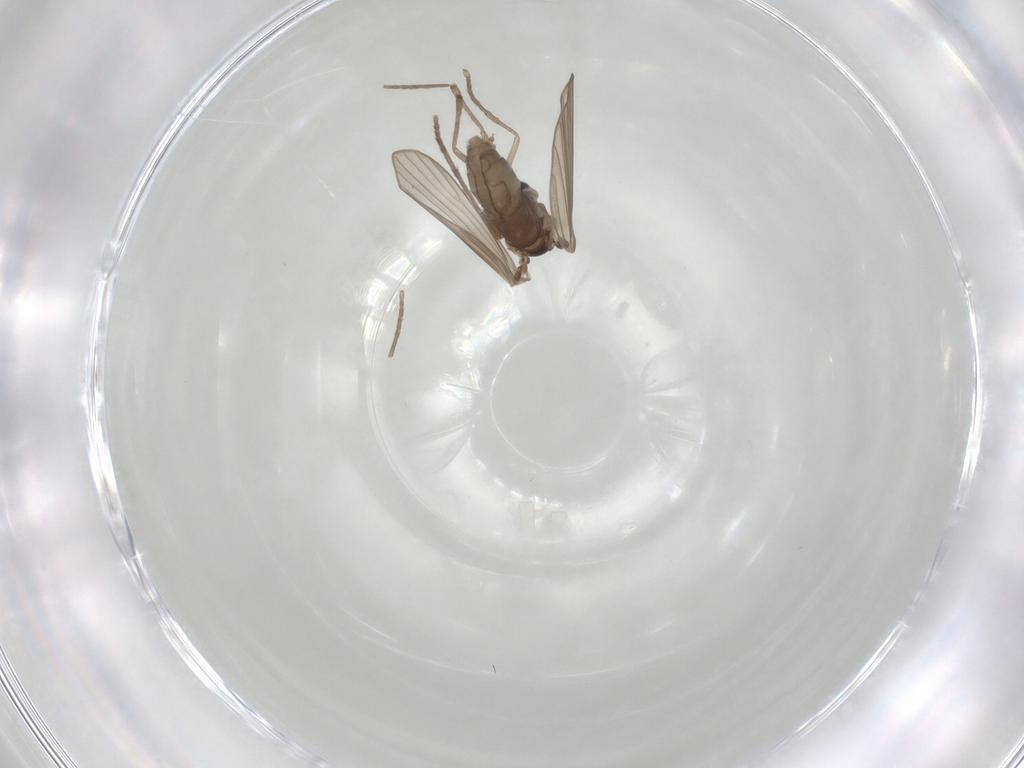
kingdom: Animalia
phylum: Arthropoda
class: Insecta
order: Diptera
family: Psychodidae
